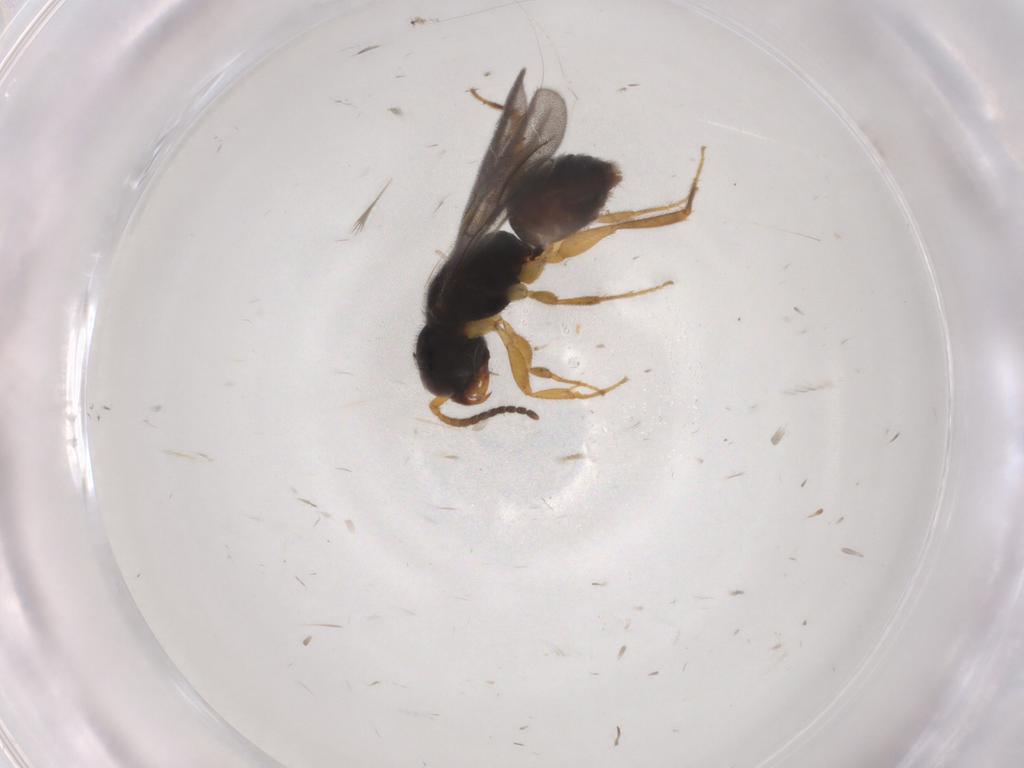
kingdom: Animalia
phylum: Arthropoda
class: Insecta
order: Hymenoptera
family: Bethylidae
